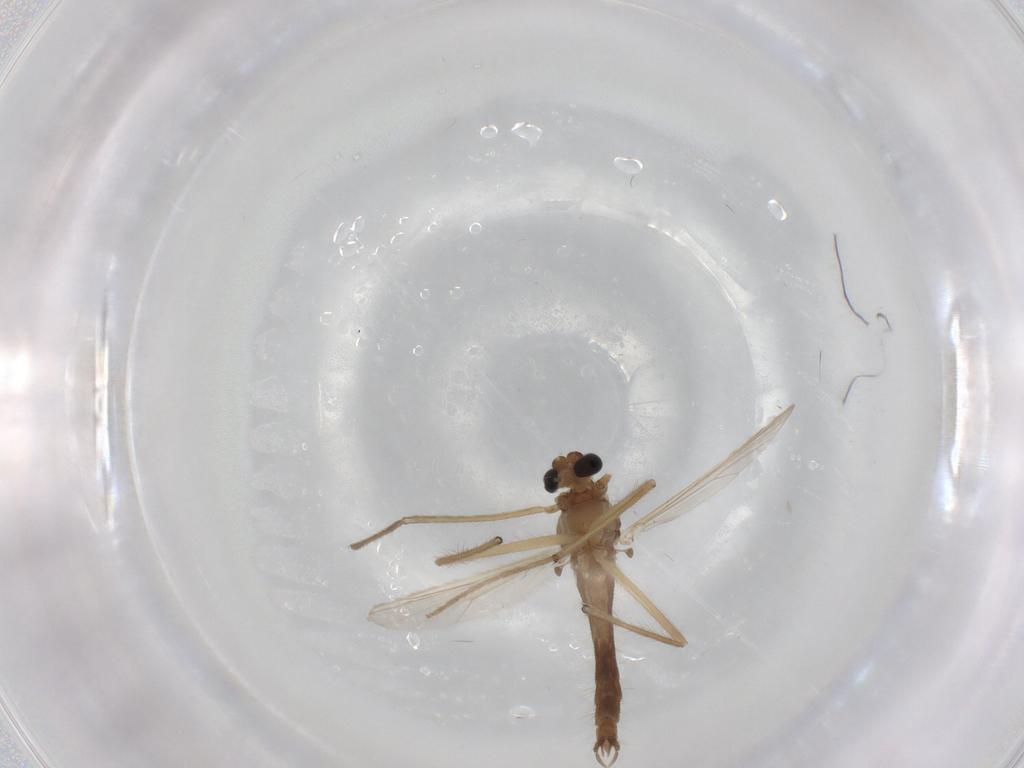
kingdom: Animalia
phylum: Arthropoda
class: Insecta
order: Diptera
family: Chironomidae
